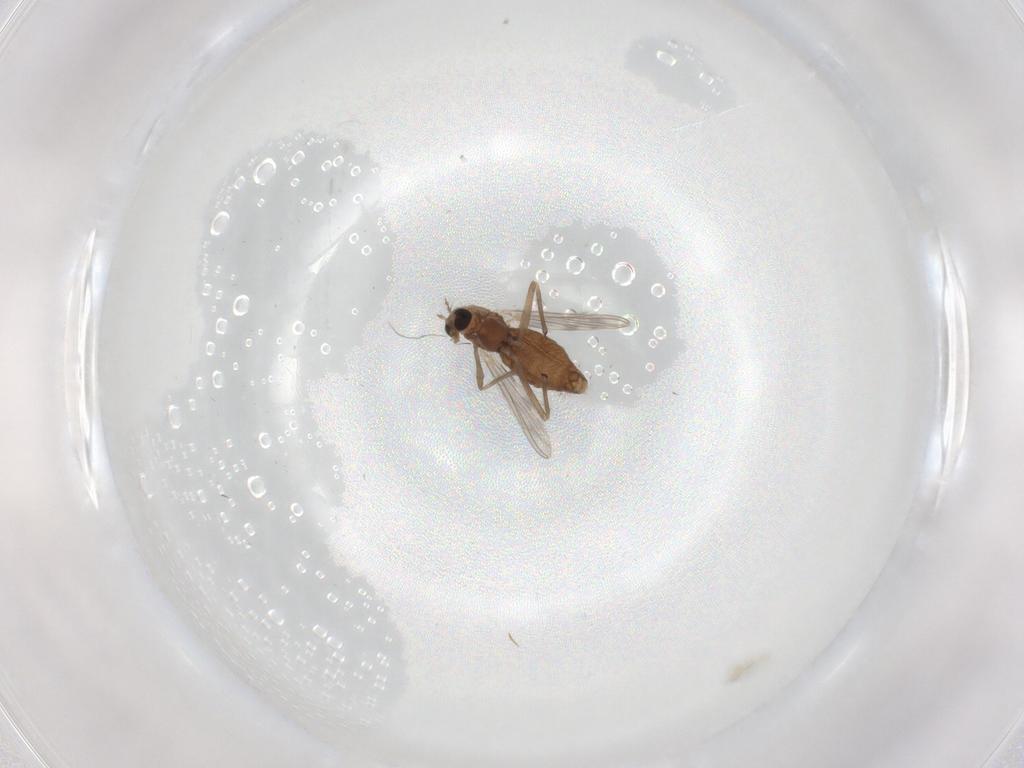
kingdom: Animalia
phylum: Arthropoda
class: Insecta
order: Diptera
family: Chironomidae
